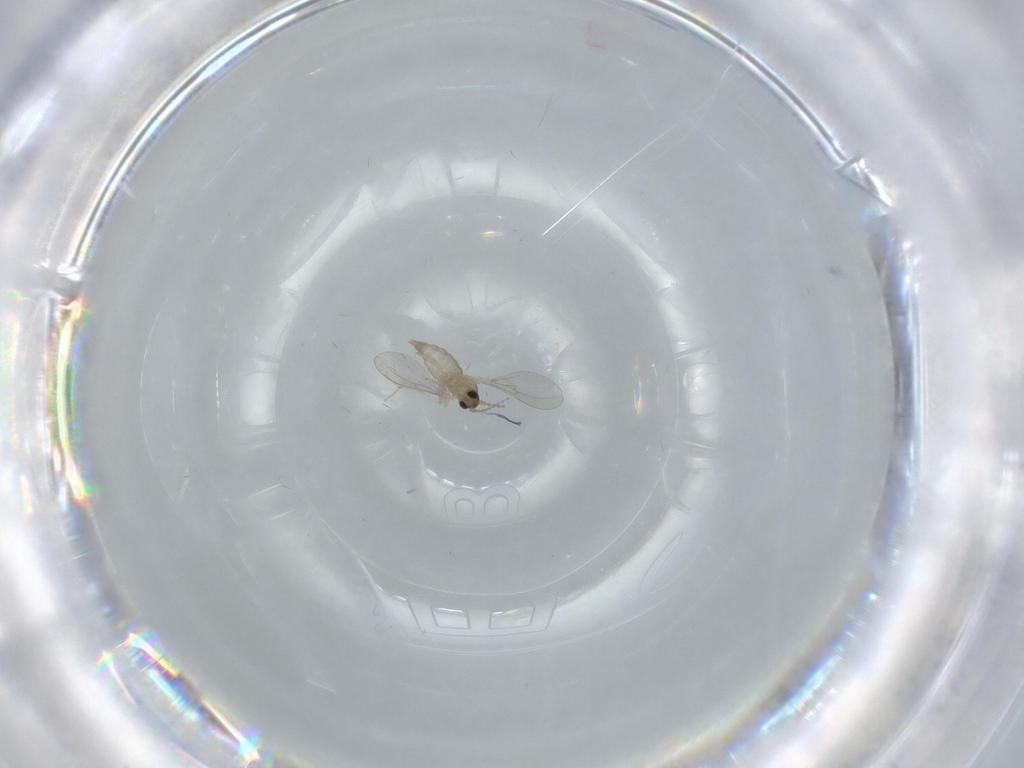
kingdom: Animalia
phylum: Arthropoda
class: Insecta
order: Diptera
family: Cecidomyiidae
